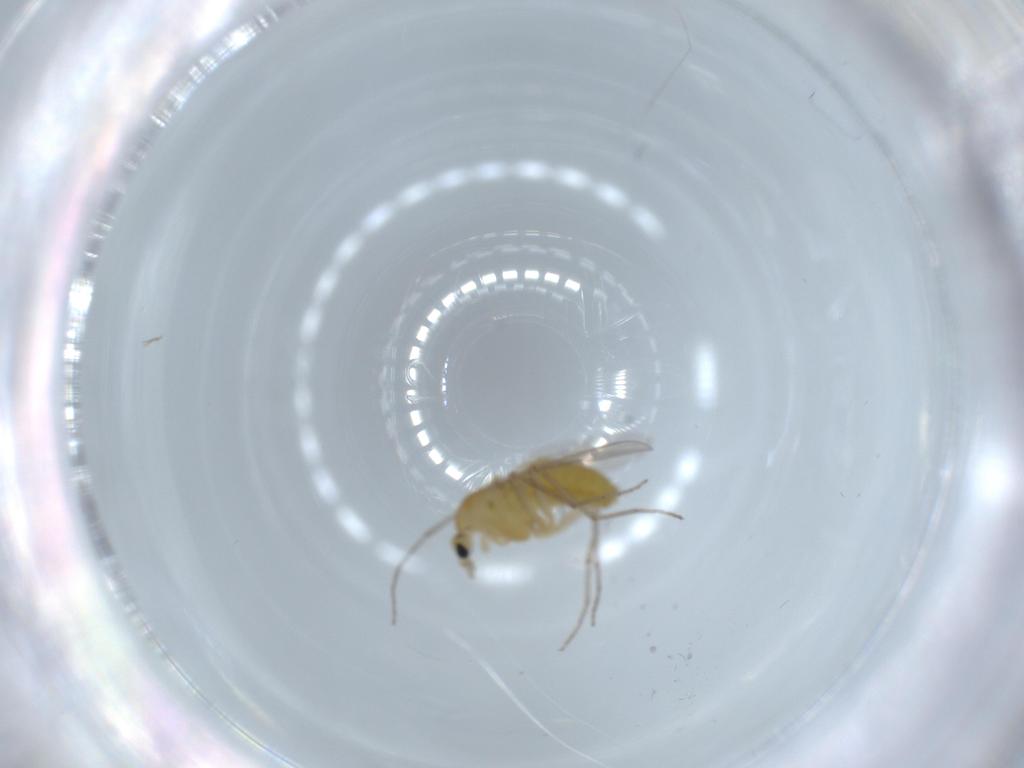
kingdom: Animalia
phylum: Arthropoda
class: Insecta
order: Diptera
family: Chironomidae
